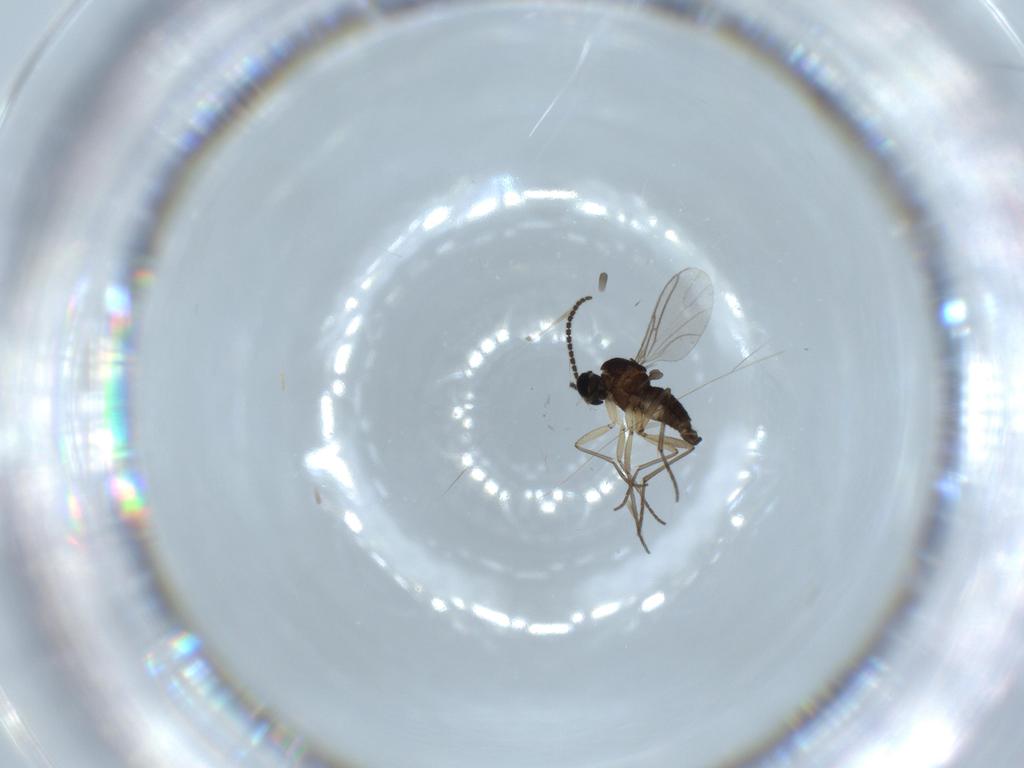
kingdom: Animalia
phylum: Arthropoda
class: Insecta
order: Diptera
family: Sciaridae
